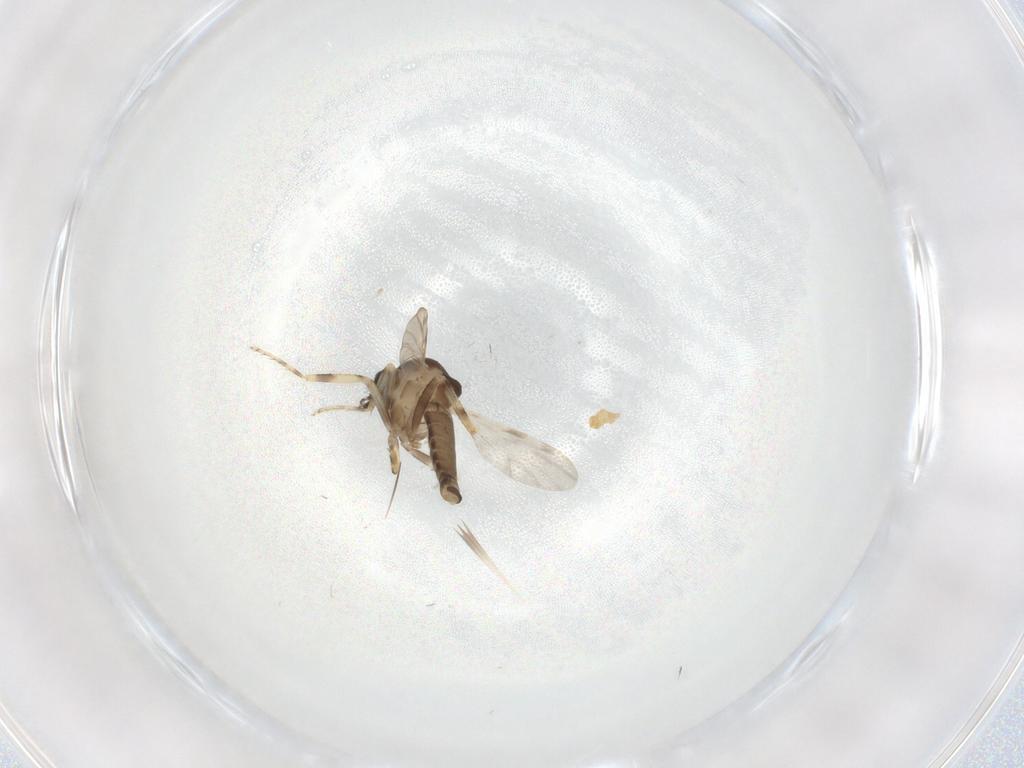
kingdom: Animalia
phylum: Arthropoda
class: Insecta
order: Diptera
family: Ceratopogonidae
